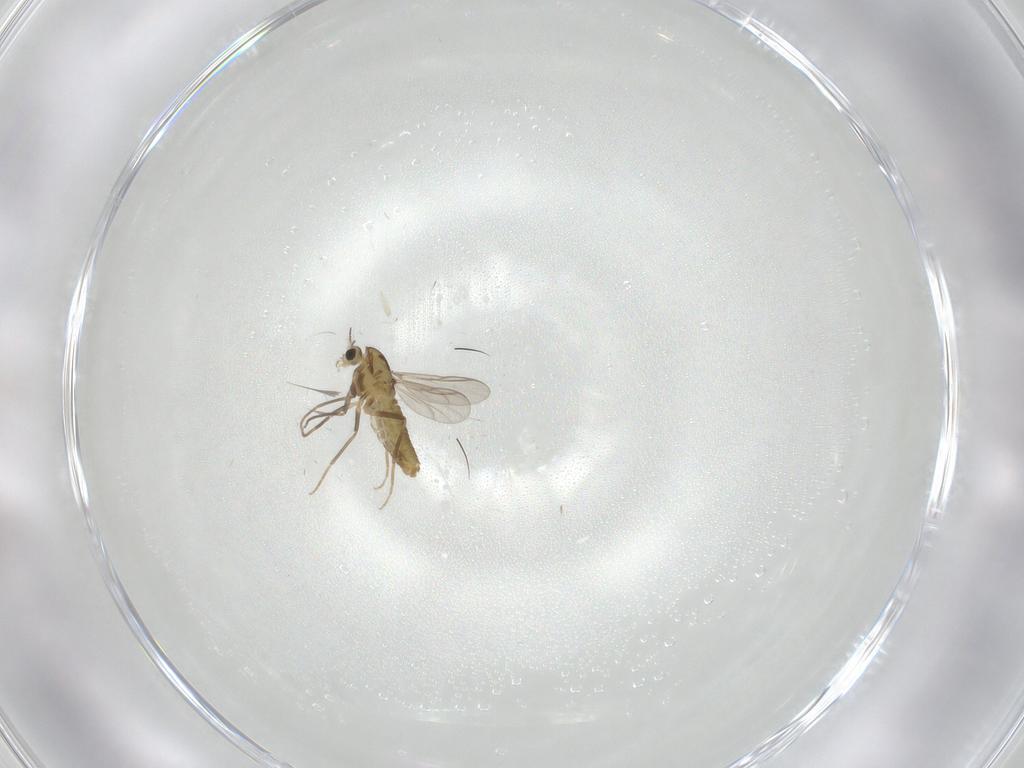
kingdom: Animalia
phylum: Arthropoda
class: Insecta
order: Diptera
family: Chironomidae
